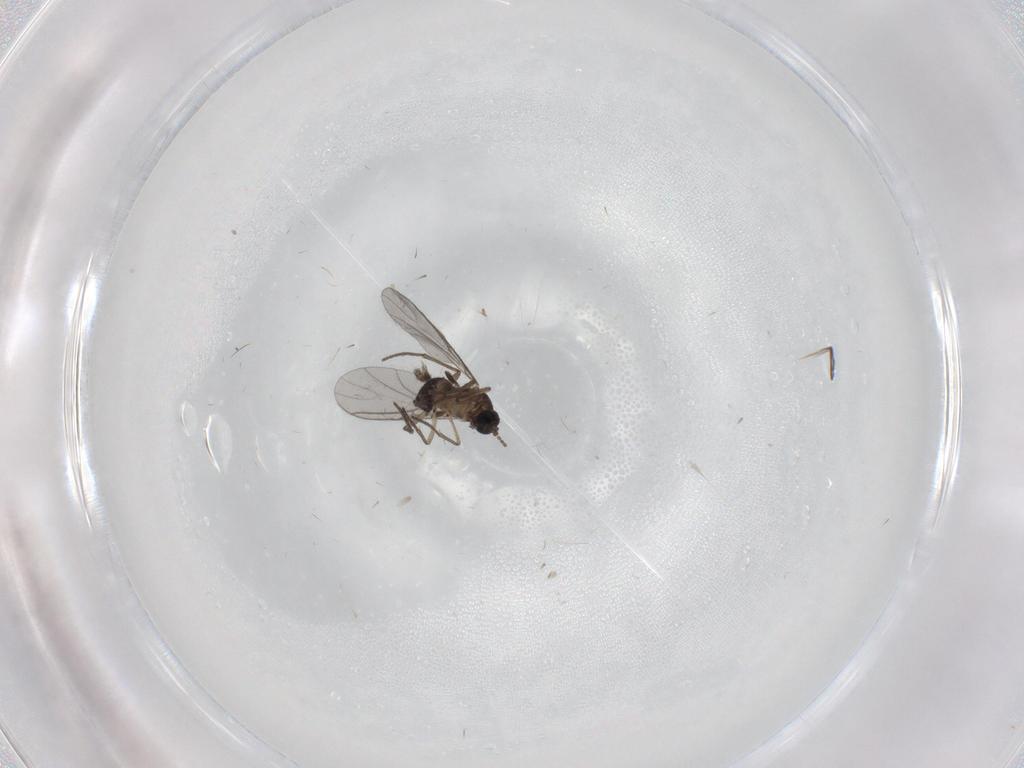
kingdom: Animalia
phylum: Arthropoda
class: Insecta
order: Diptera
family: Sciaridae
